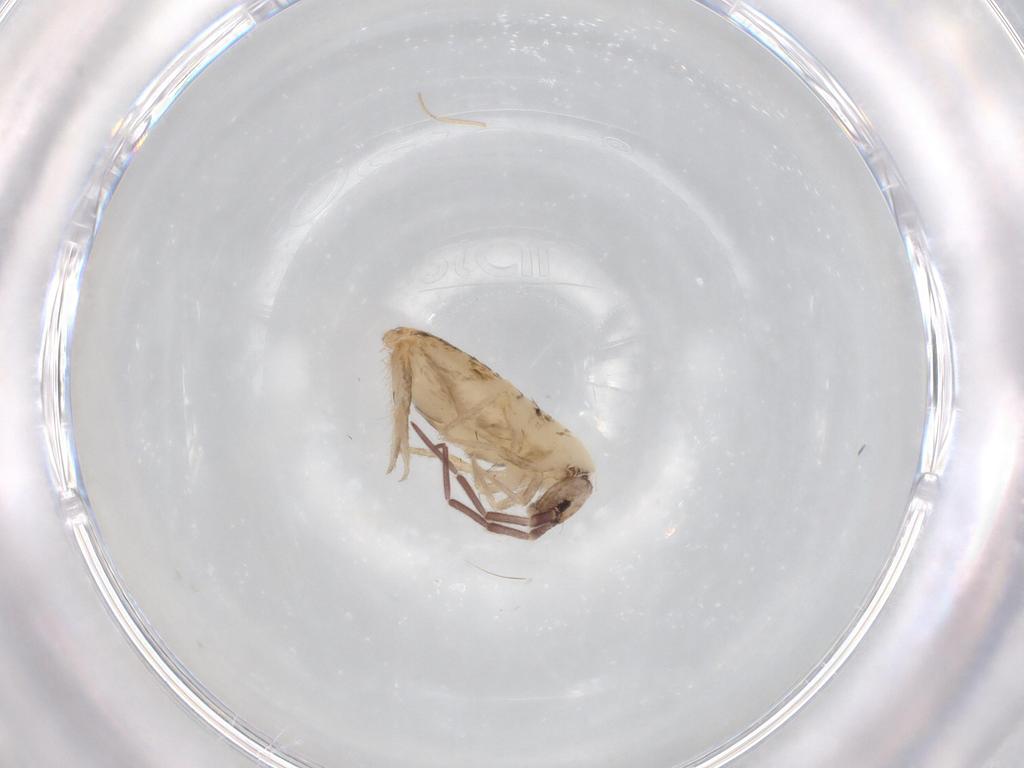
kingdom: Animalia
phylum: Arthropoda
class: Collembola
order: Entomobryomorpha
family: Entomobryidae
